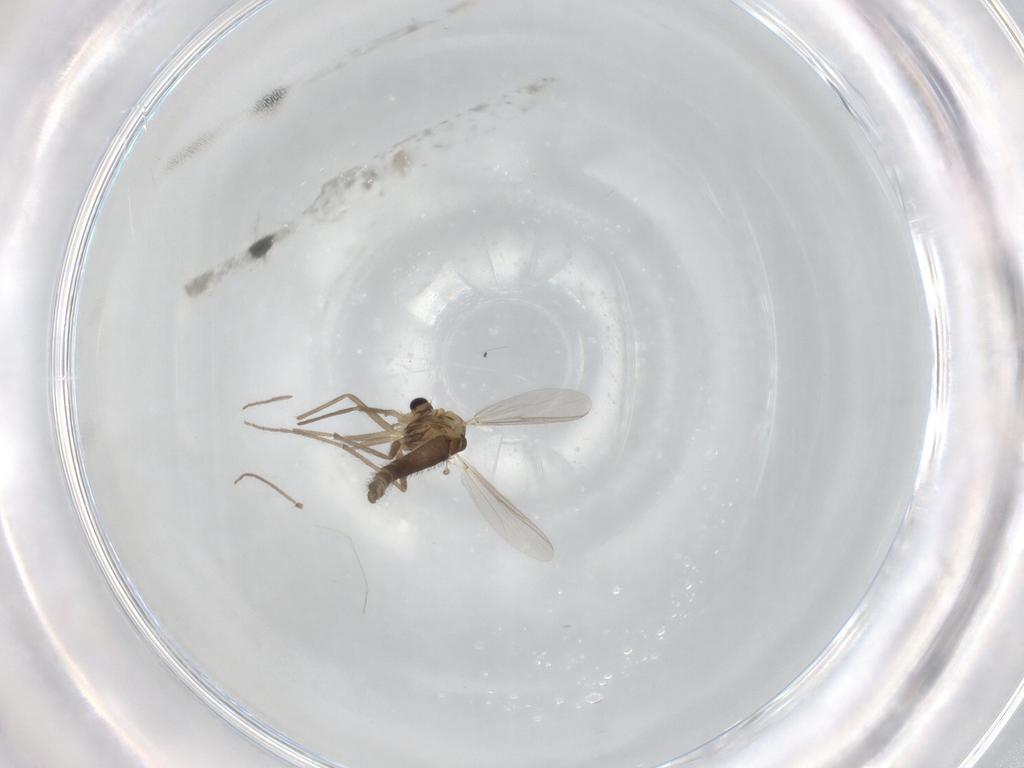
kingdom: Animalia
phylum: Arthropoda
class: Insecta
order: Diptera
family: Chironomidae
